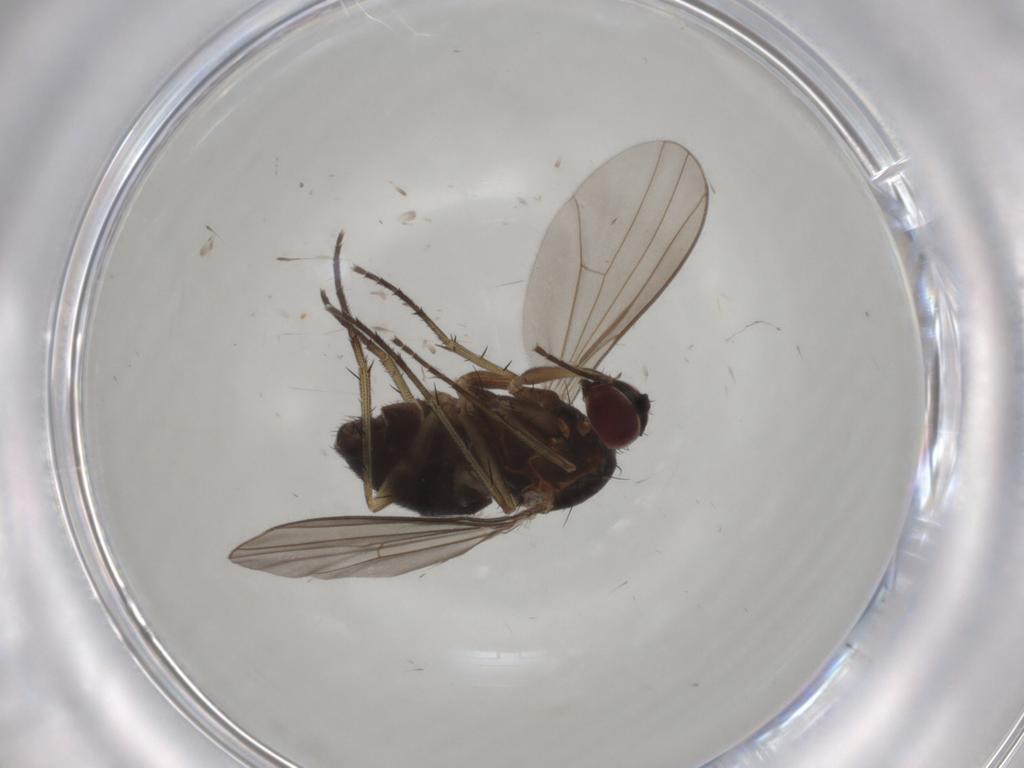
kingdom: Animalia
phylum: Arthropoda
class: Insecta
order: Diptera
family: Dolichopodidae
